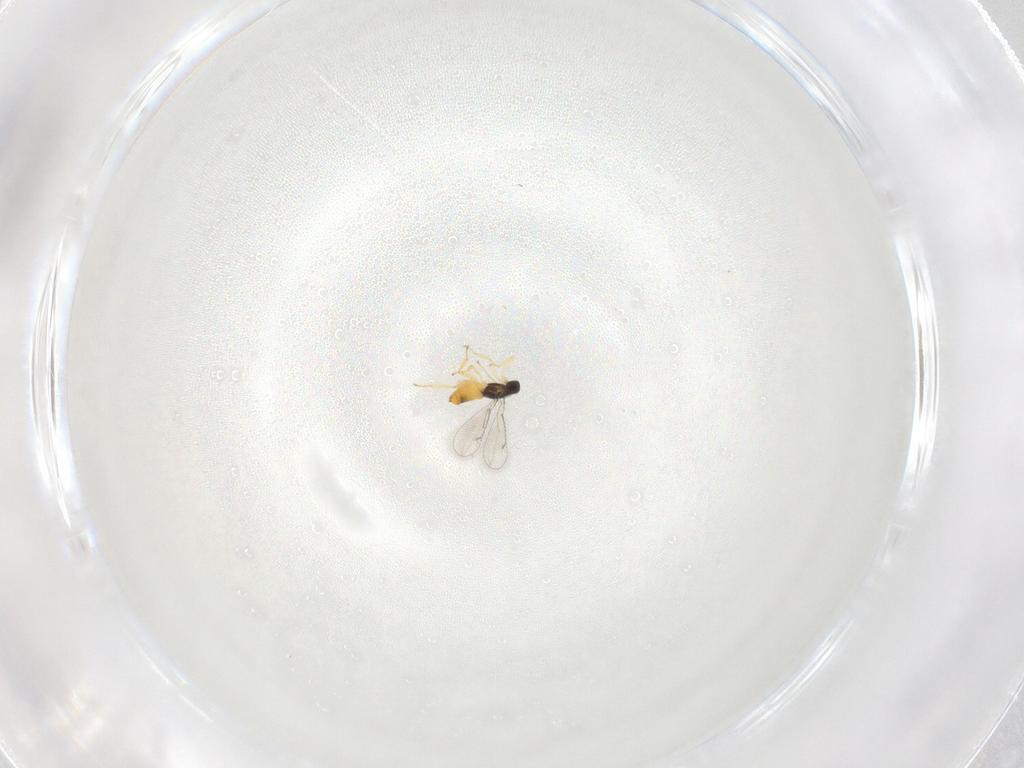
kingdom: Animalia
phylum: Arthropoda
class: Insecta
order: Hymenoptera
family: Eulophidae
